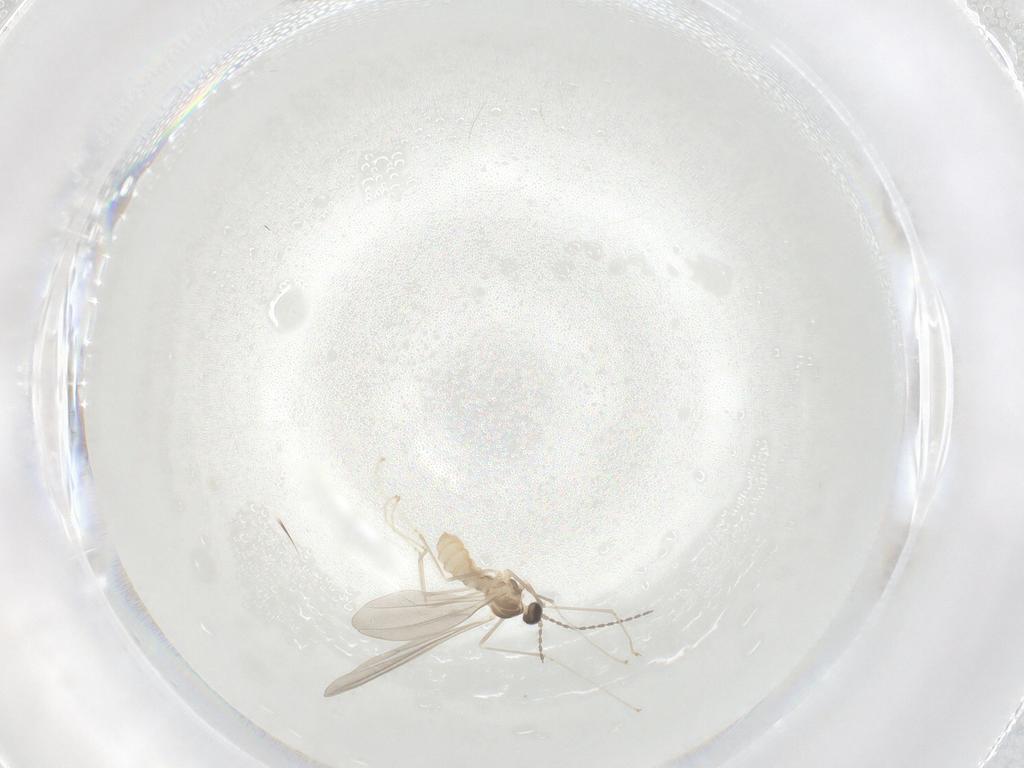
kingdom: Animalia
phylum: Arthropoda
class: Insecta
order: Diptera
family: Cecidomyiidae
